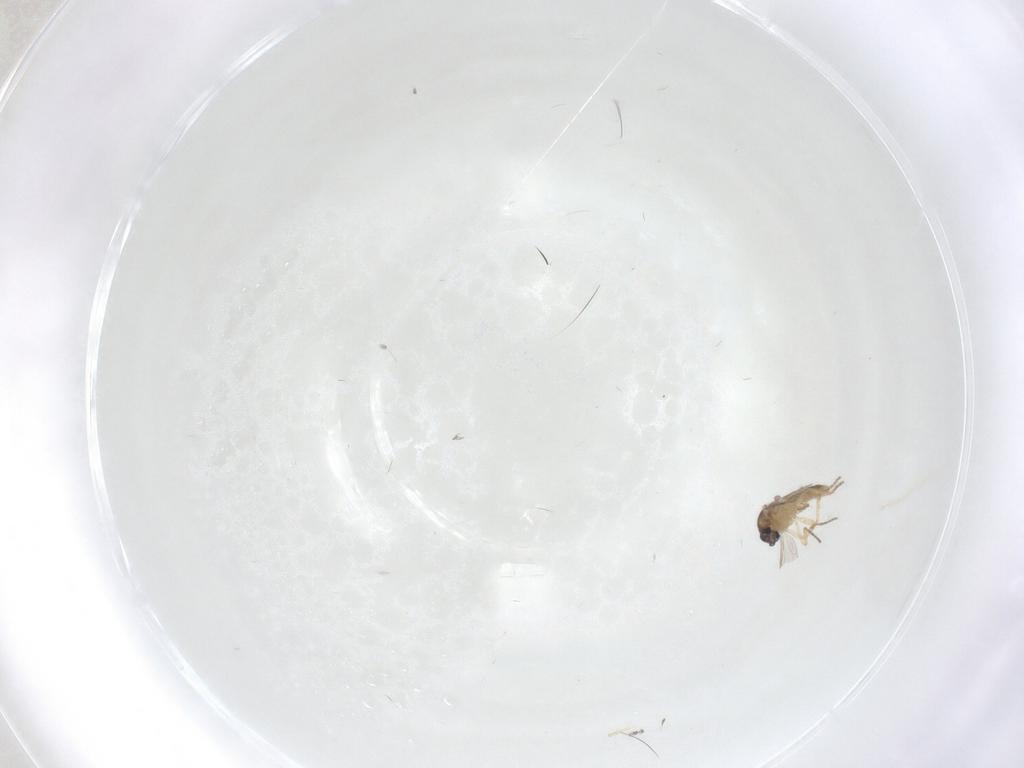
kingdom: Animalia
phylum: Arthropoda
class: Insecta
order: Diptera
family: Ceratopogonidae
